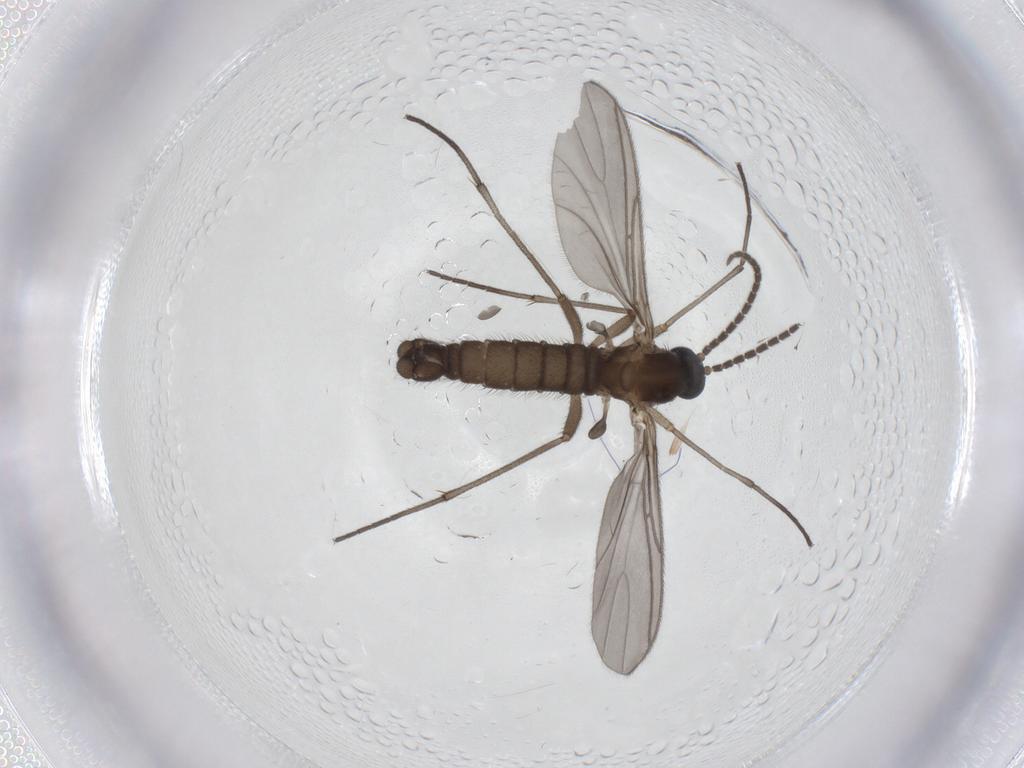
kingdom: Animalia
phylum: Arthropoda
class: Insecta
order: Diptera
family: Sciaridae
